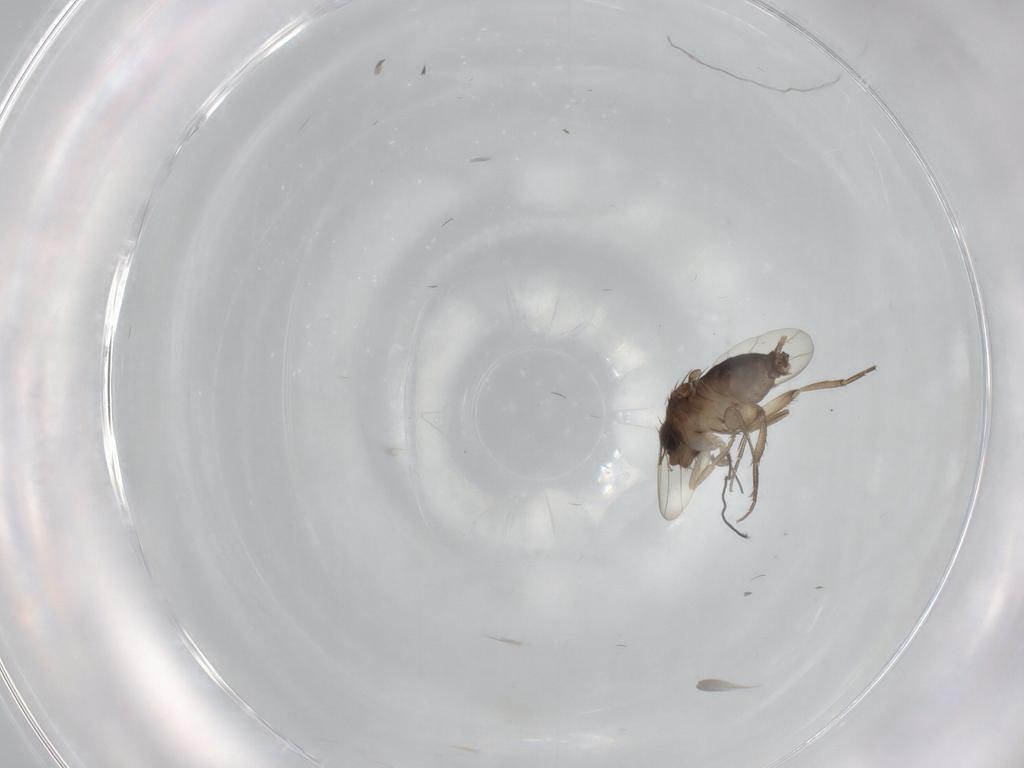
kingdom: Animalia
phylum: Arthropoda
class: Insecta
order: Diptera
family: Phoridae
